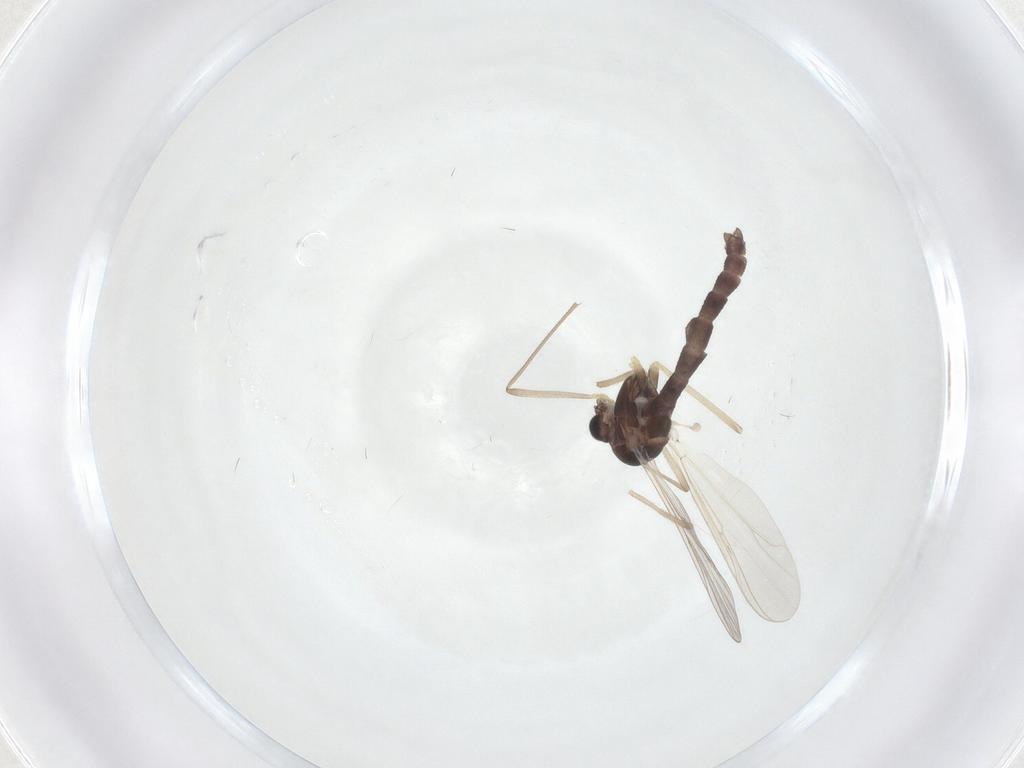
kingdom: Animalia
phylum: Arthropoda
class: Insecta
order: Diptera
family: Chironomidae
